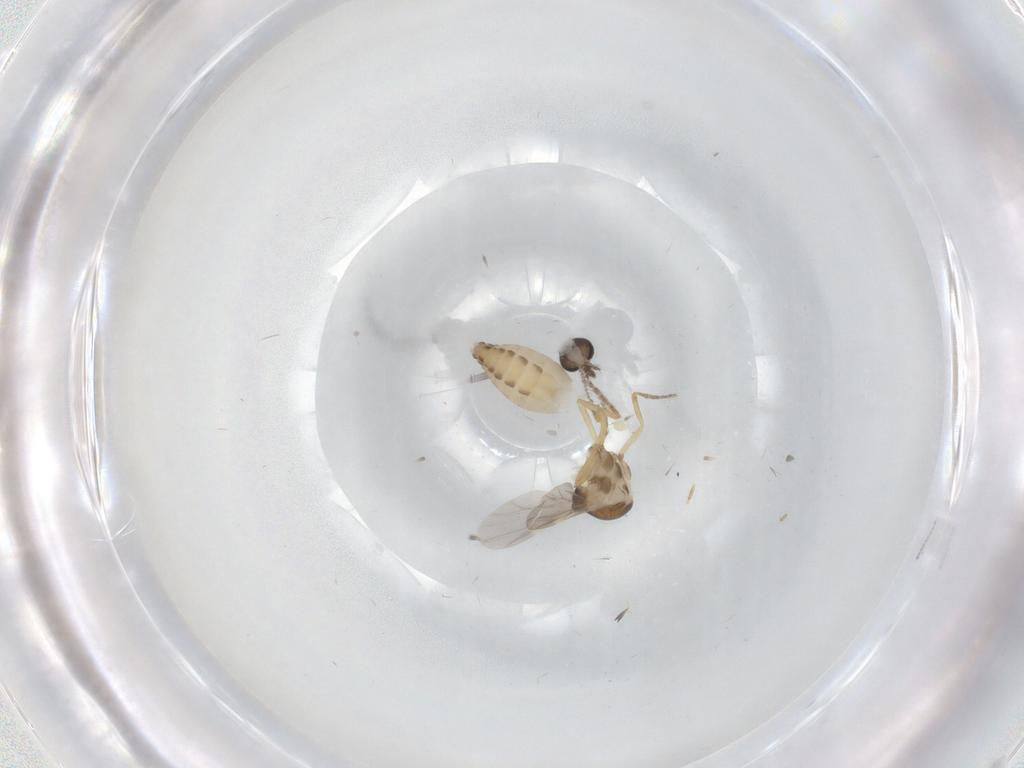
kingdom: Animalia
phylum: Arthropoda
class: Insecta
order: Diptera
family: Ceratopogonidae
